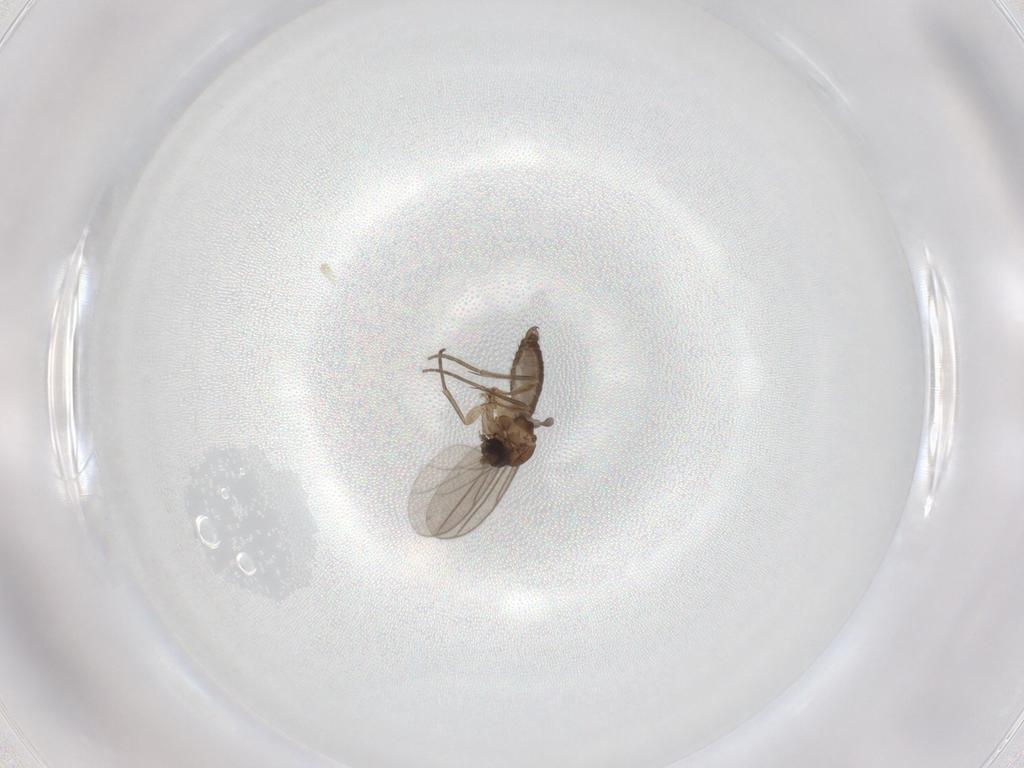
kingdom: Animalia
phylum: Arthropoda
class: Insecta
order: Diptera
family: Sciaridae
